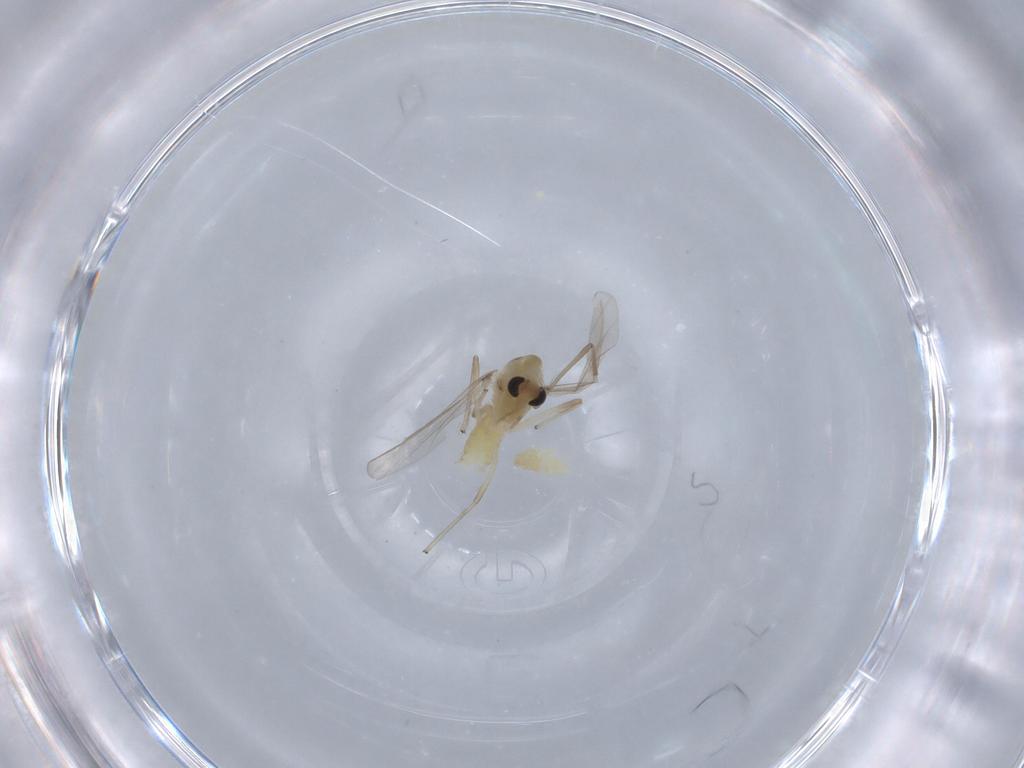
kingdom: Animalia
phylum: Arthropoda
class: Insecta
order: Diptera
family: Chironomidae
